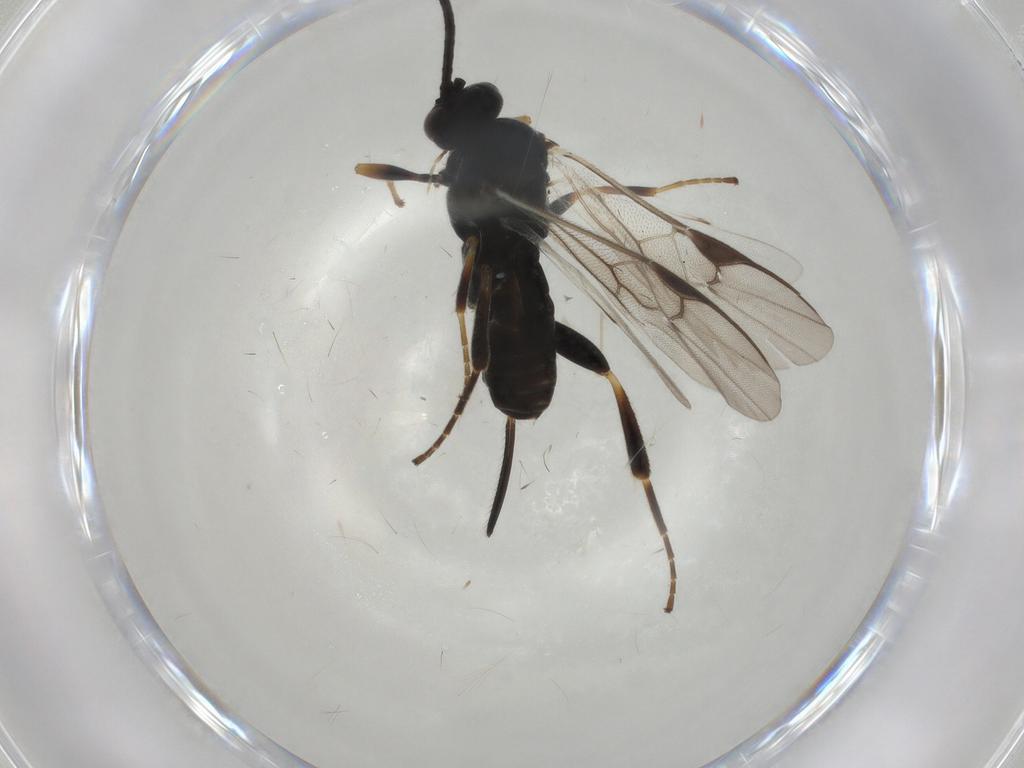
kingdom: Animalia
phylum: Arthropoda
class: Insecta
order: Hymenoptera
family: Braconidae
